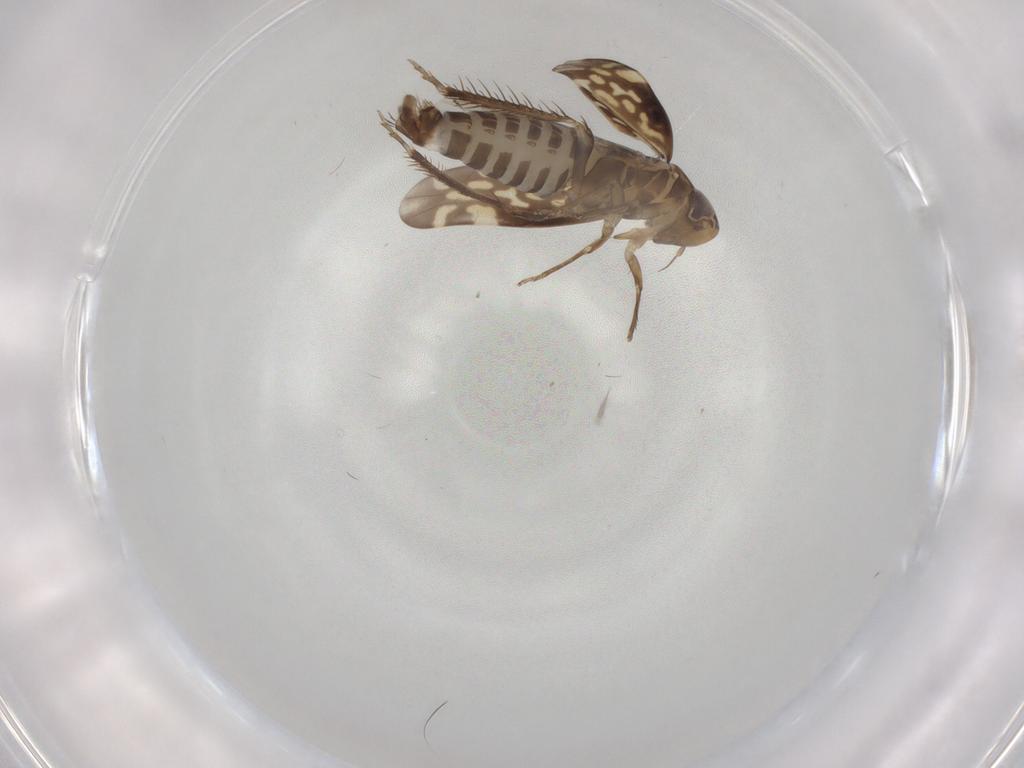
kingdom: Animalia
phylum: Arthropoda
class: Insecta
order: Hemiptera
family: Cicadellidae
